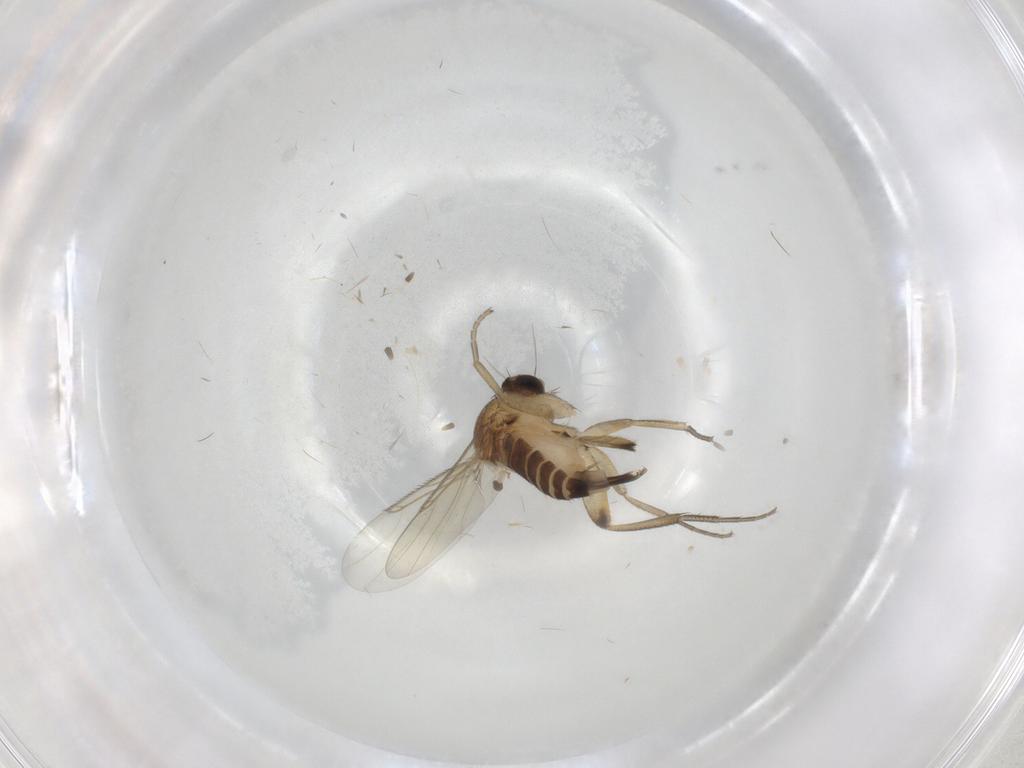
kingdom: Animalia
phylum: Arthropoda
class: Insecta
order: Diptera
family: Phoridae
